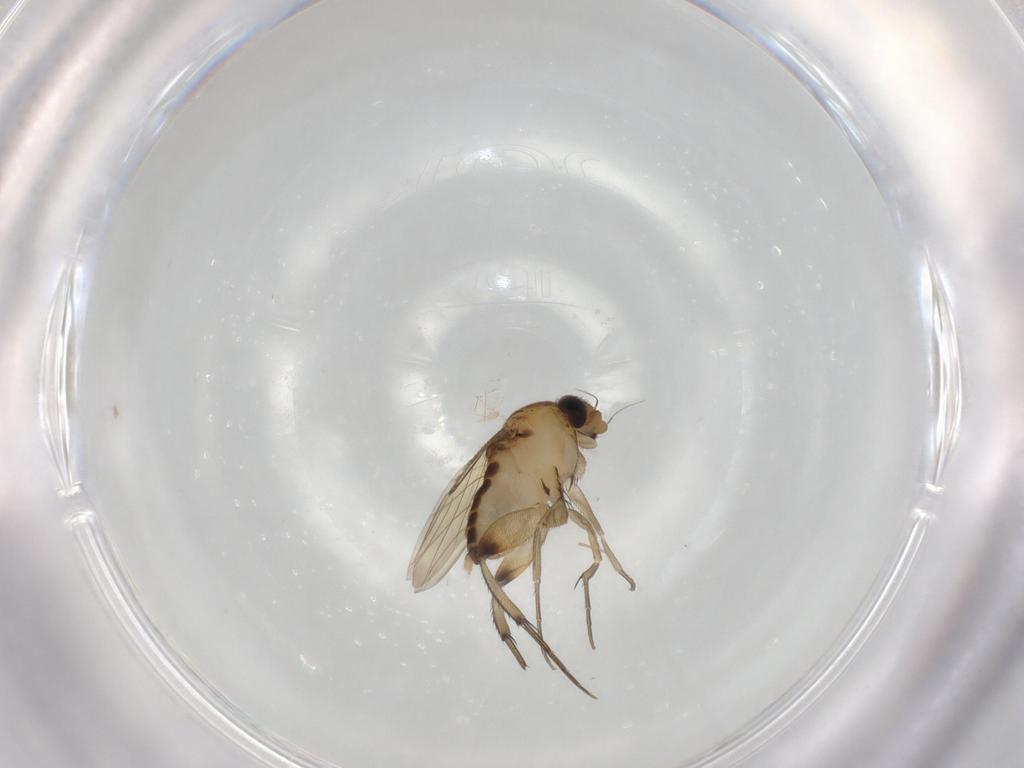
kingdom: Animalia
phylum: Arthropoda
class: Insecta
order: Diptera
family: Phoridae
